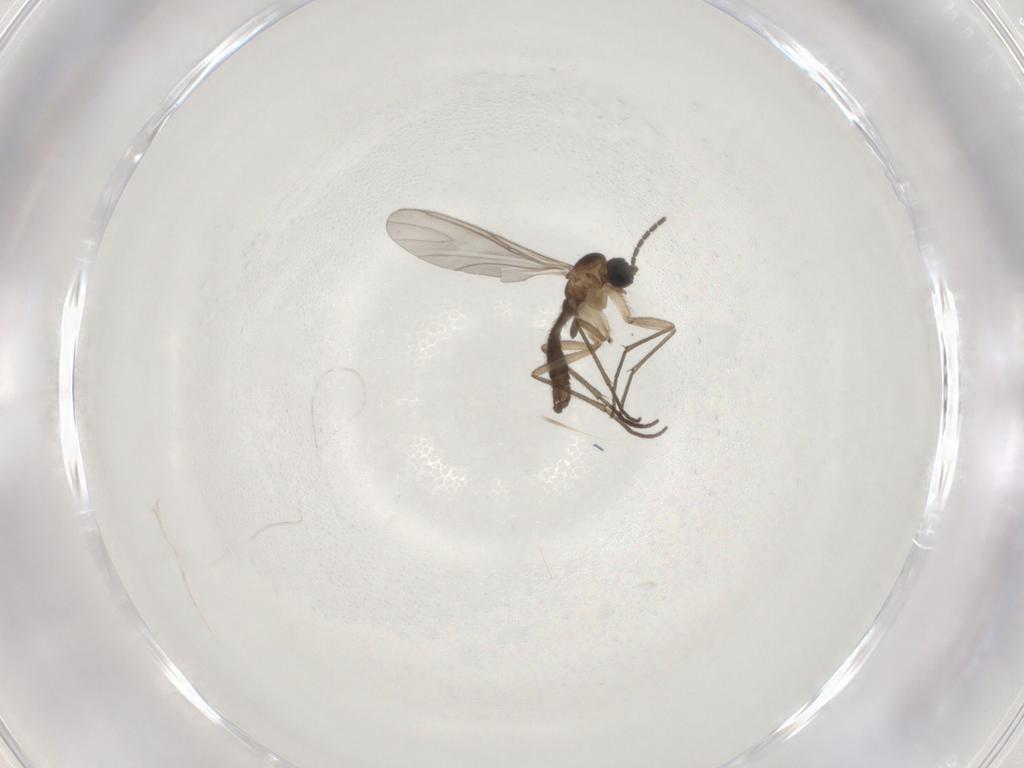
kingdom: Animalia
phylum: Arthropoda
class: Insecta
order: Diptera
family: Sciaridae
